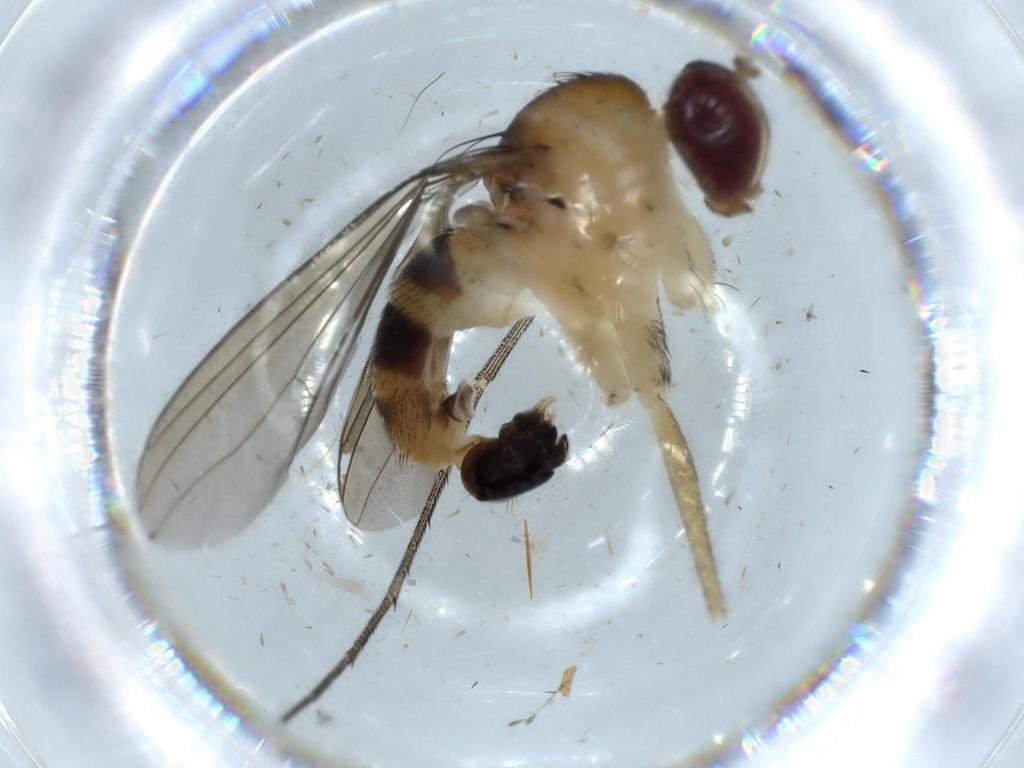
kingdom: Animalia
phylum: Arthropoda
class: Insecta
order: Diptera
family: Dolichopodidae
